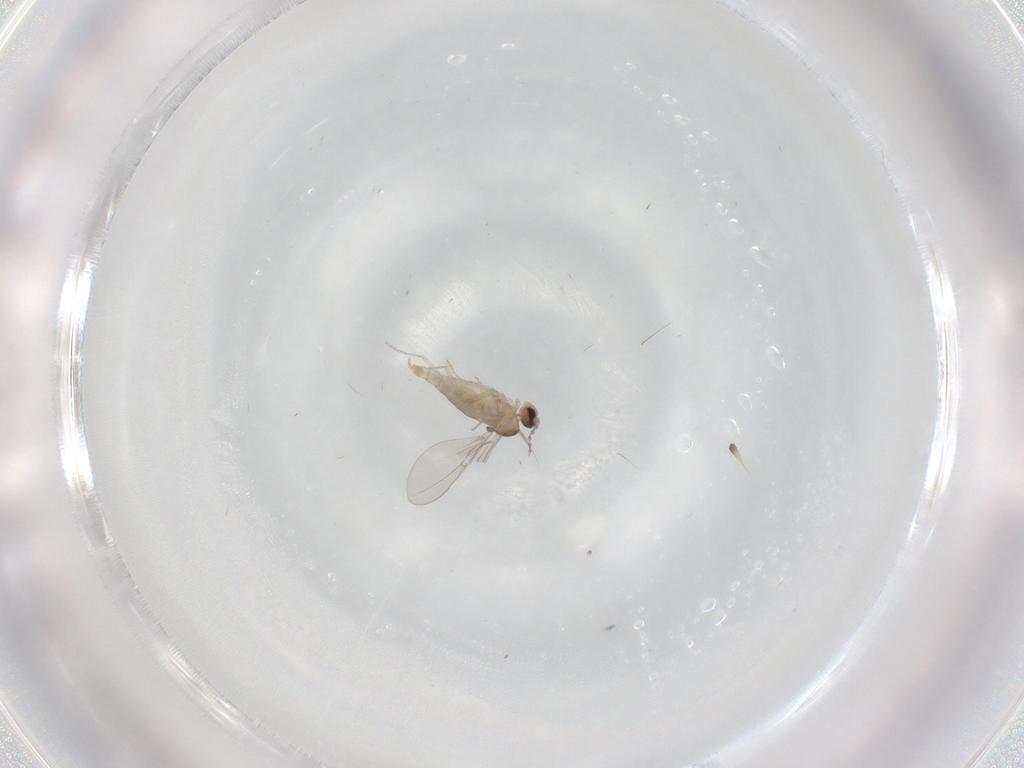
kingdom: Animalia
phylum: Arthropoda
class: Insecta
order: Diptera
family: Cecidomyiidae
